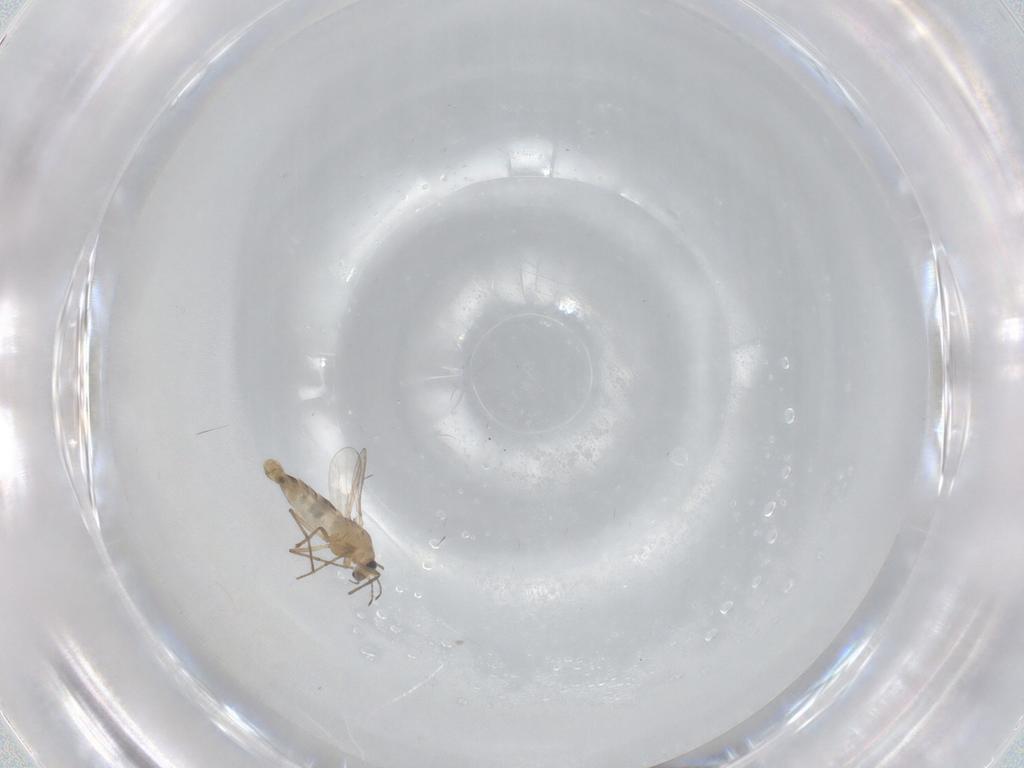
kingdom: Animalia
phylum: Arthropoda
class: Insecta
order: Diptera
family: Phoridae
